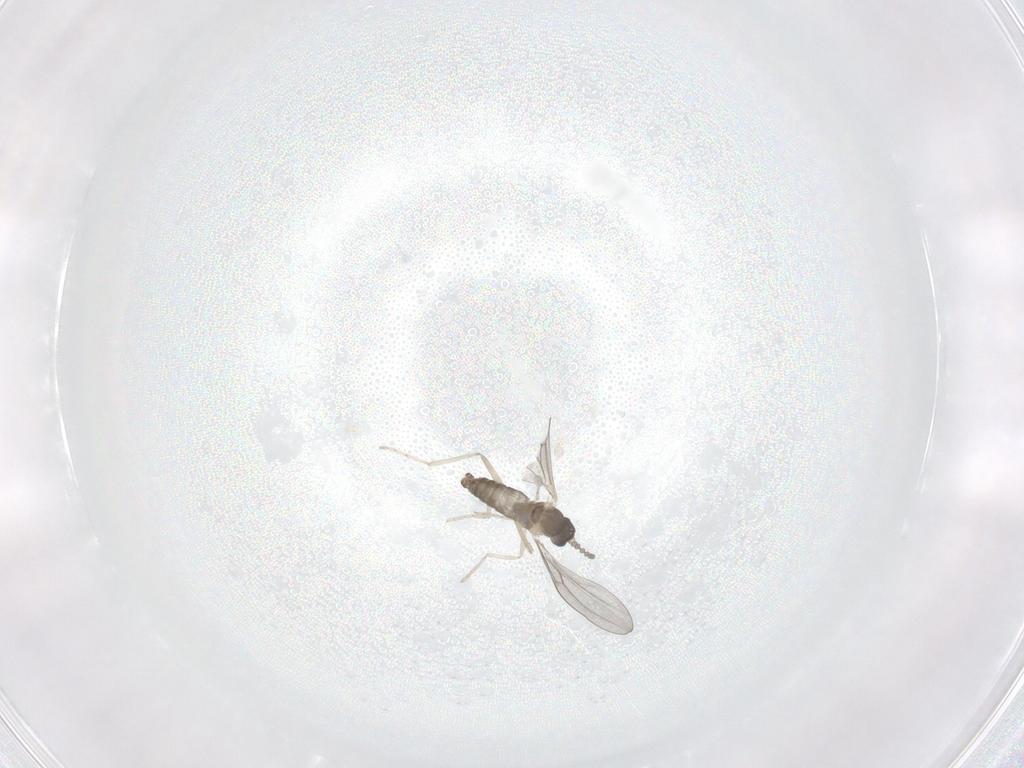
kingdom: Animalia
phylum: Arthropoda
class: Insecta
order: Diptera
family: Cecidomyiidae
